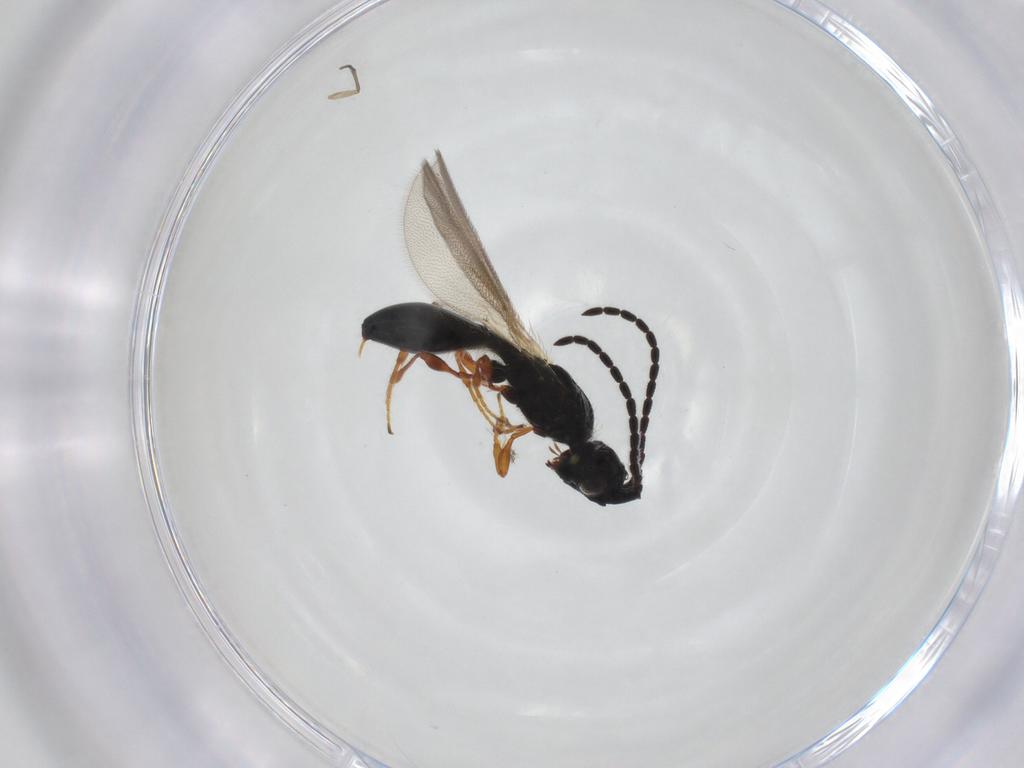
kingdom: Animalia
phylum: Arthropoda
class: Insecta
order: Hymenoptera
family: Diapriidae
